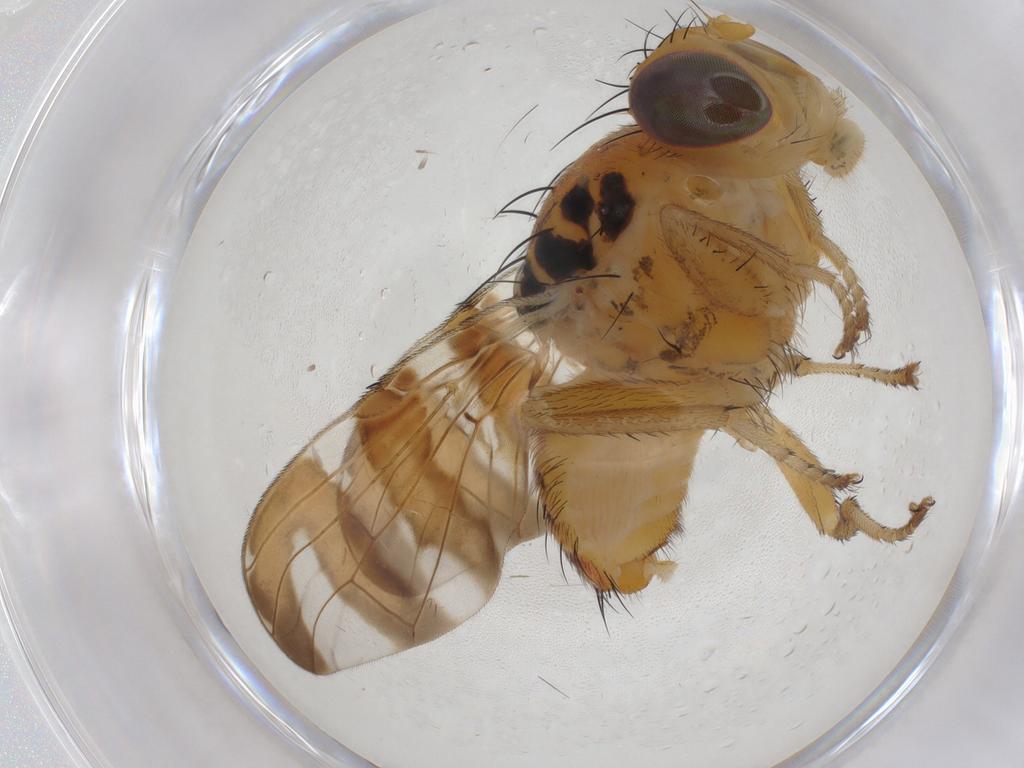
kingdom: Animalia
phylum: Arthropoda
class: Insecta
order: Diptera
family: Tephritidae
